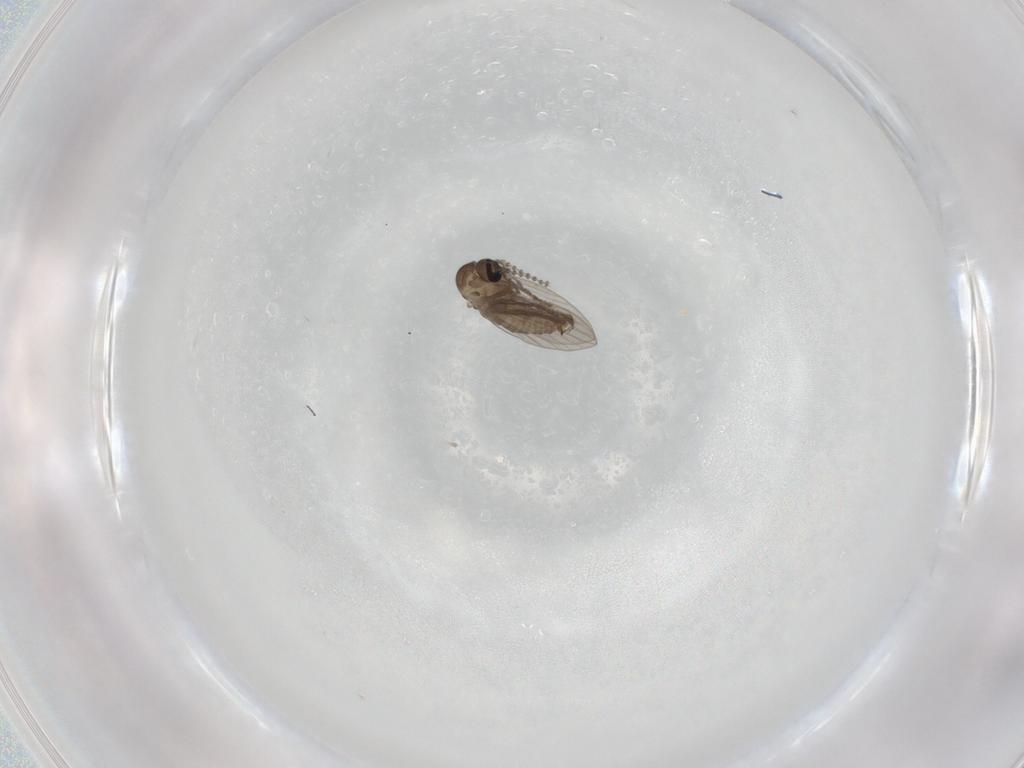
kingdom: Animalia
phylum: Arthropoda
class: Insecta
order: Diptera
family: Psychodidae
